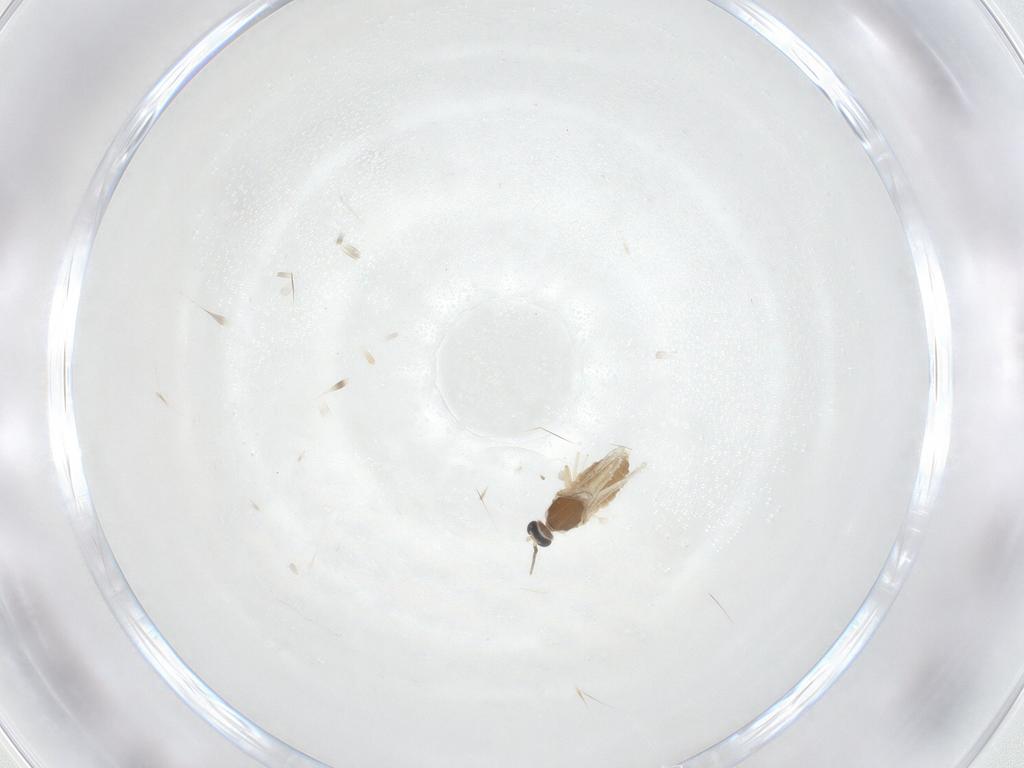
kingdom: Animalia
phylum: Arthropoda
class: Insecta
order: Diptera
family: Cecidomyiidae
